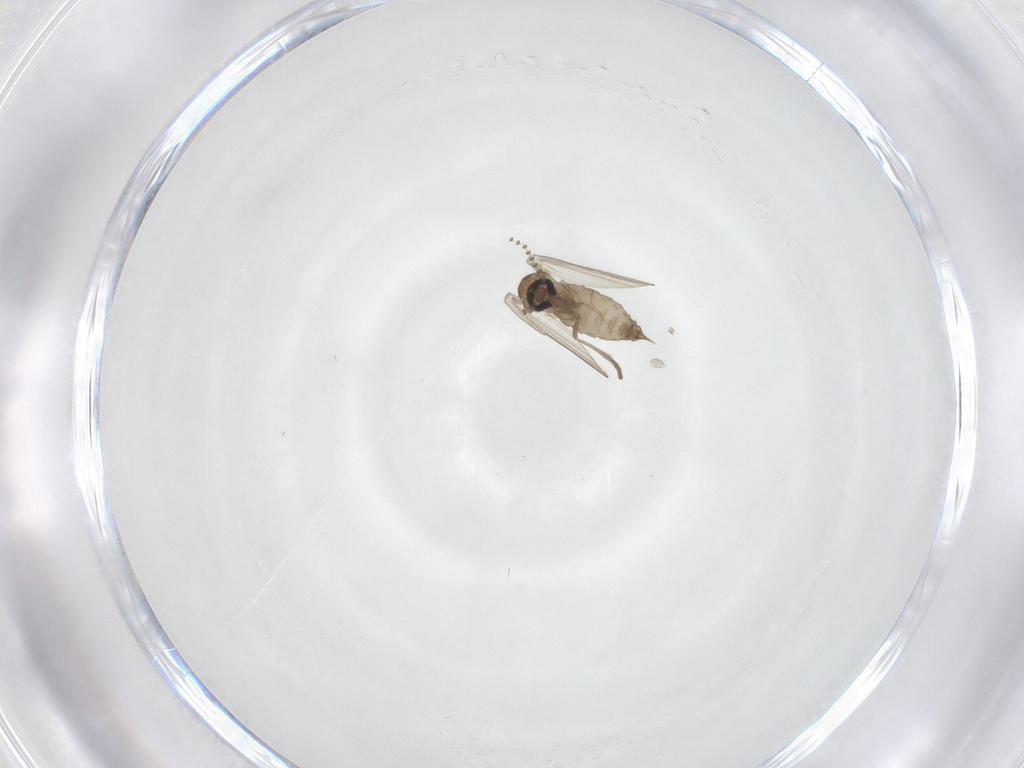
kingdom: Animalia
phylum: Arthropoda
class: Insecta
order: Diptera
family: Psychodidae
